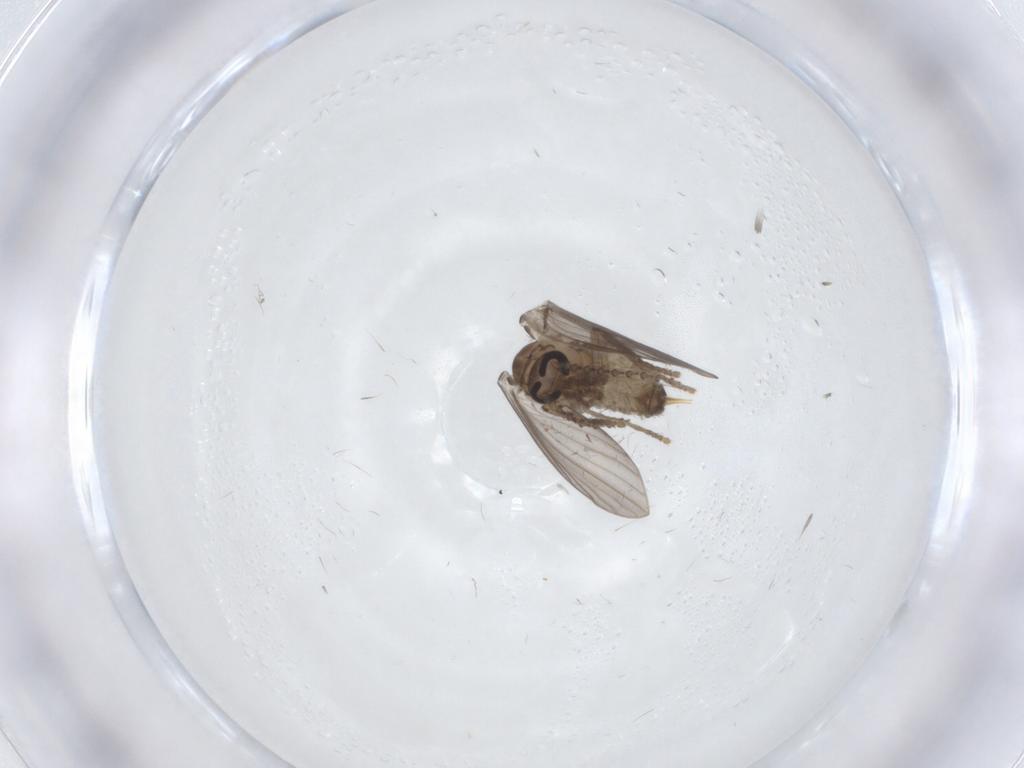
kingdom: Animalia
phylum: Arthropoda
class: Insecta
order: Diptera
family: Psychodidae
